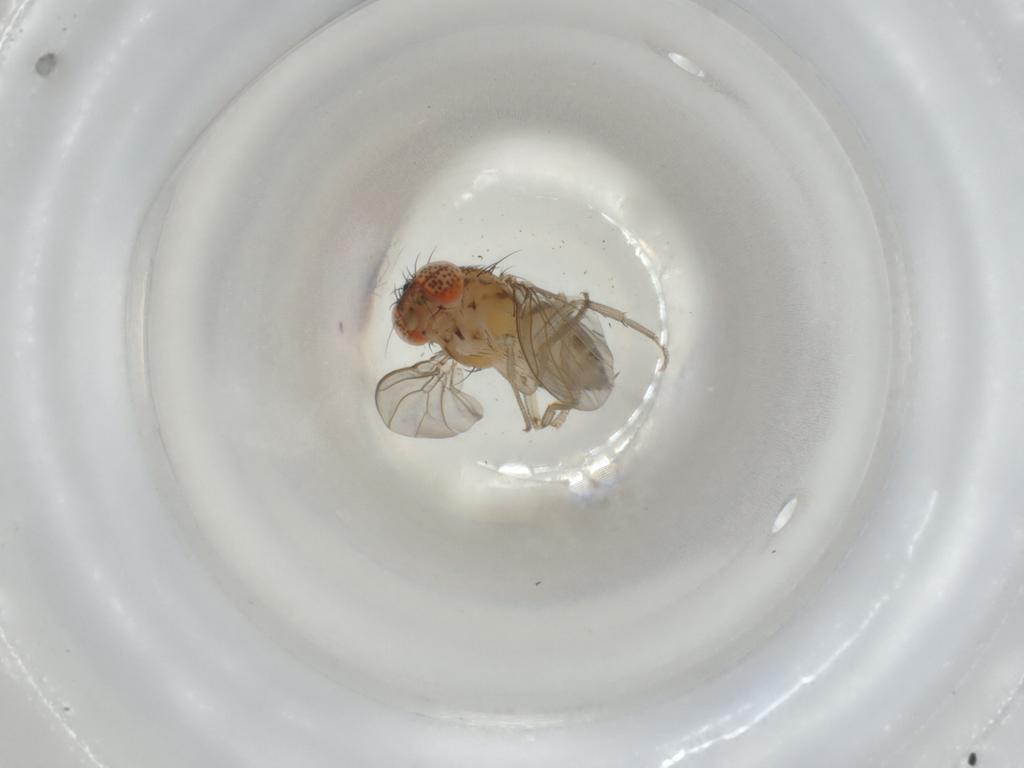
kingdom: Animalia
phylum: Arthropoda
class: Insecta
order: Diptera
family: Drosophilidae
